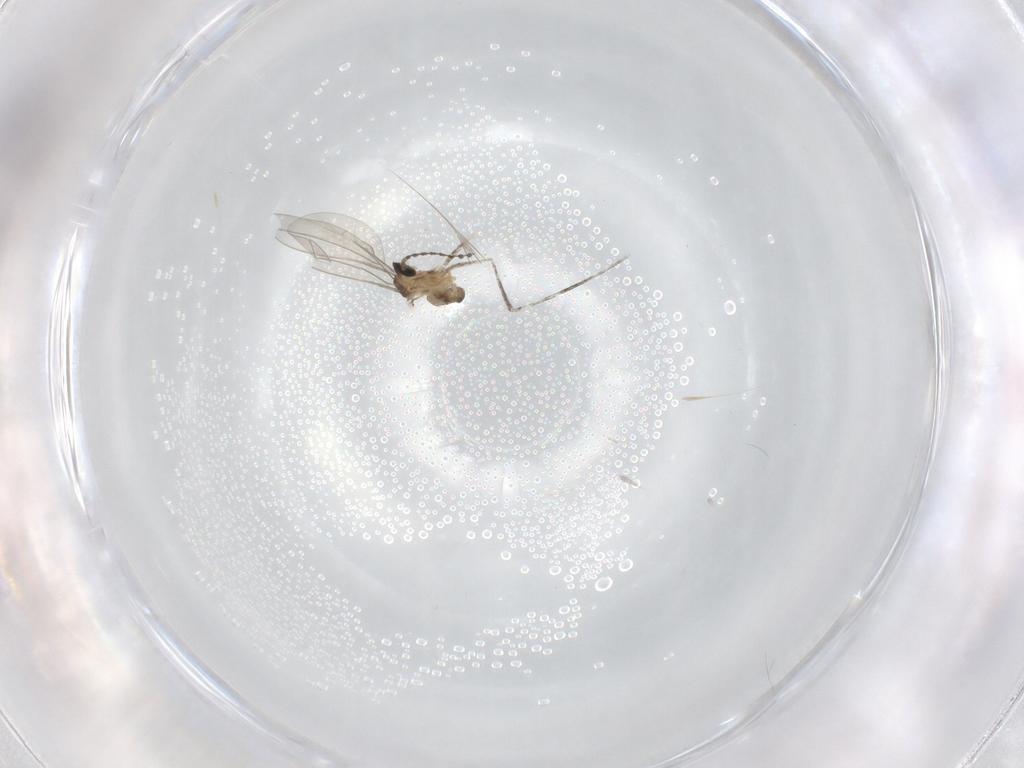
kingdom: Animalia
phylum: Arthropoda
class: Insecta
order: Diptera
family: Cecidomyiidae
